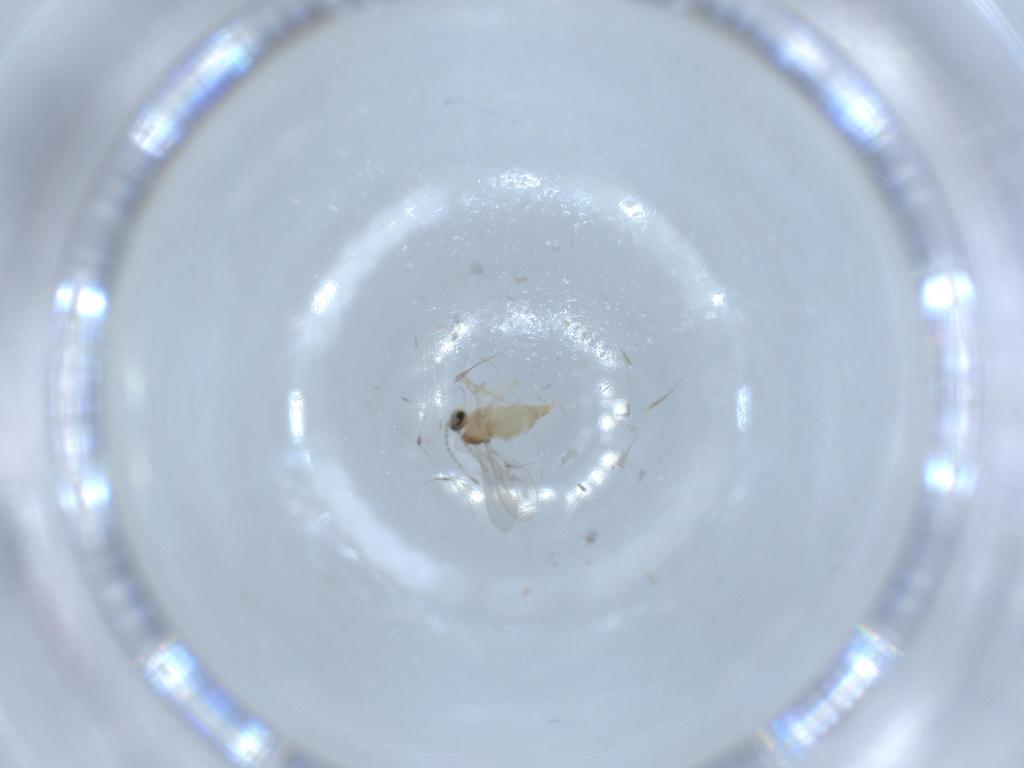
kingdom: Animalia
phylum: Arthropoda
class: Insecta
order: Diptera
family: Cecidomyiidae
